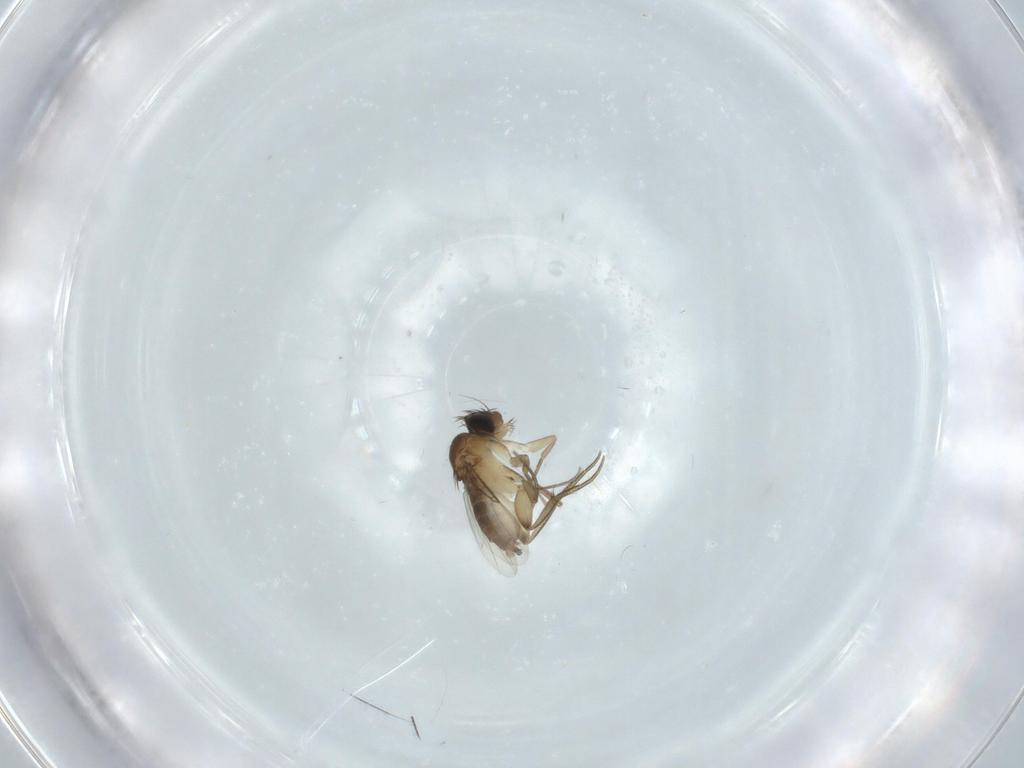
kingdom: Animalia
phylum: Arthropoda
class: Insecta
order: Diptera
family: Phoridae
